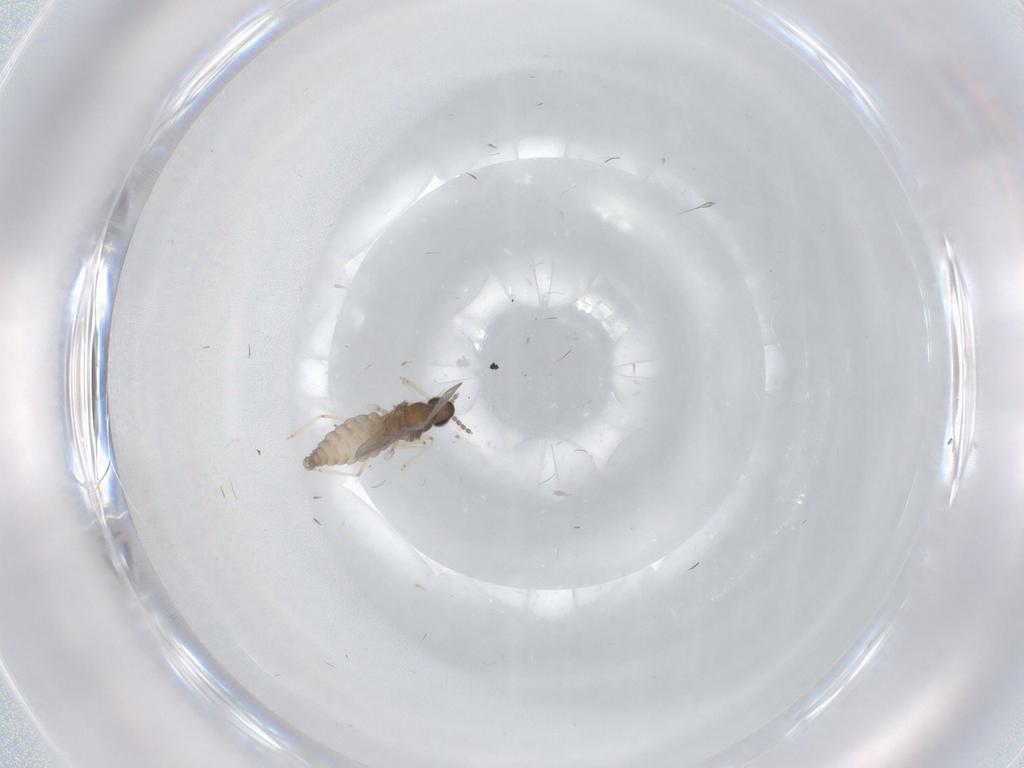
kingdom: Animalia
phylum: Arthropoda
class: Insecta
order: Diptera
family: Cecidomyiidae
